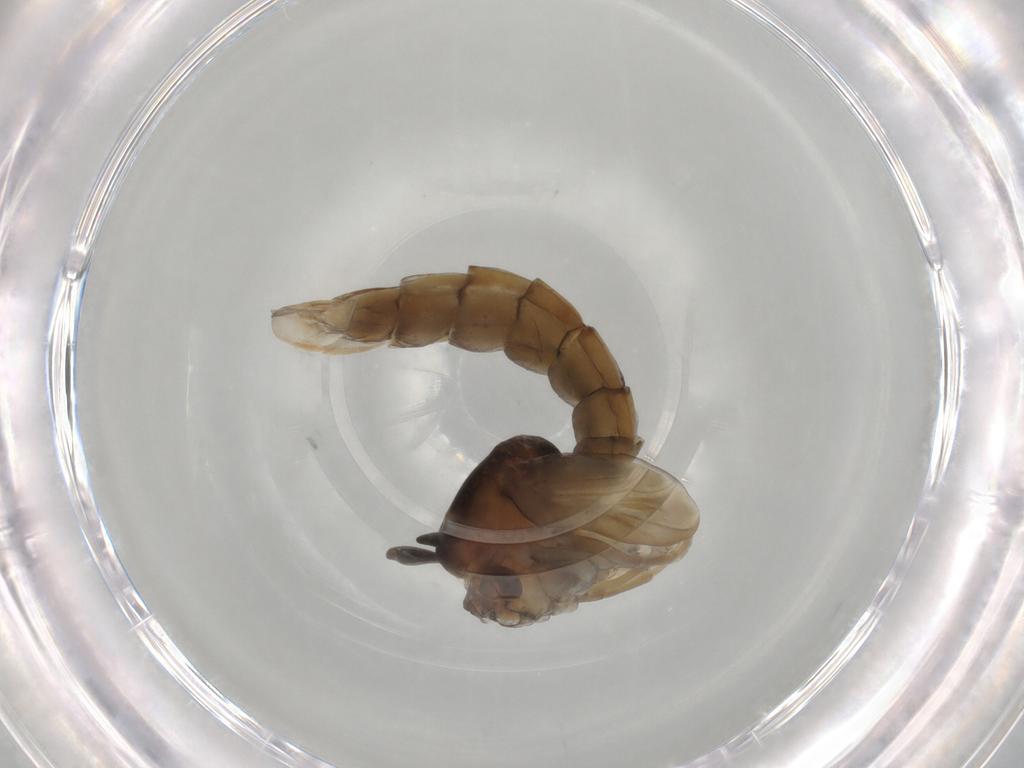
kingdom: Animalia
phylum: Arthropoda
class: Insecta
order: Diptera
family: Chironomidae
